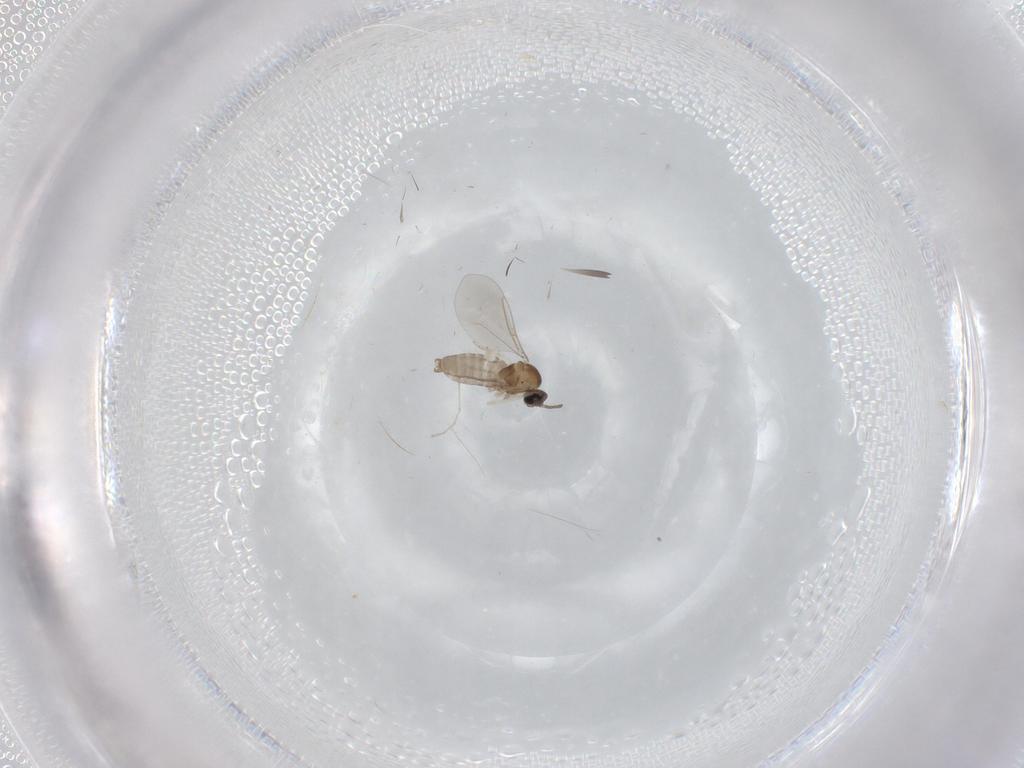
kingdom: Animalia
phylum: Arthropoda
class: Insecta
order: Diptera
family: Cecidomyiidae
